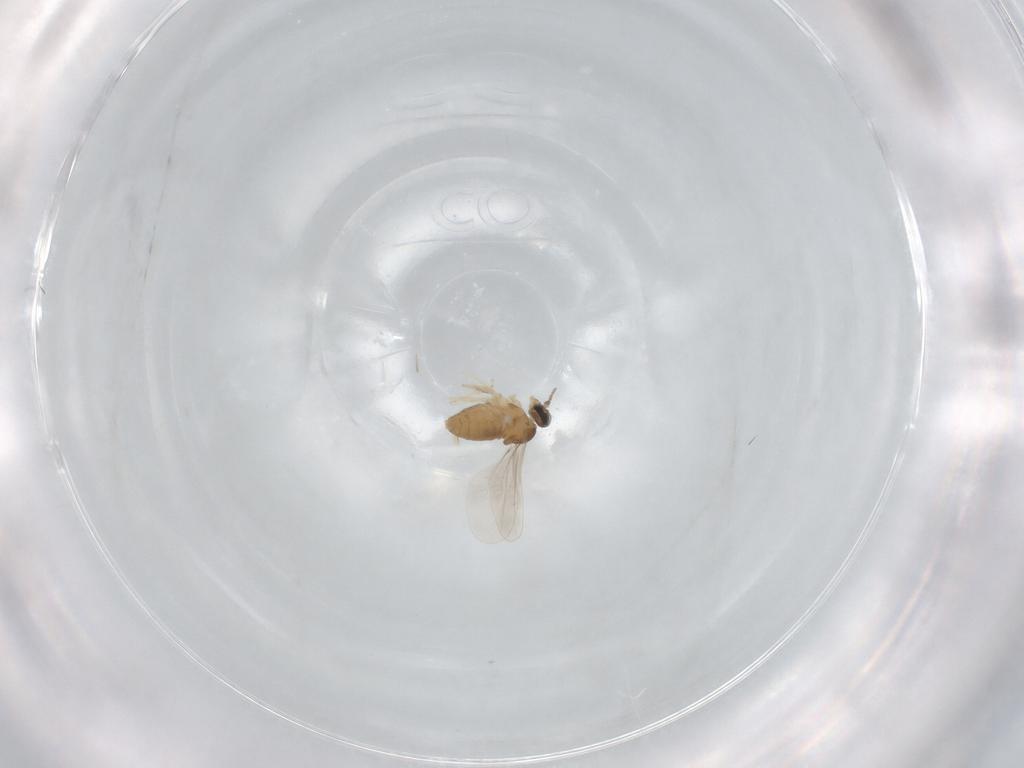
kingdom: Animalia
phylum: Arthropoda
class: Insecta
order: Diptera
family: Cecidomyiidae
